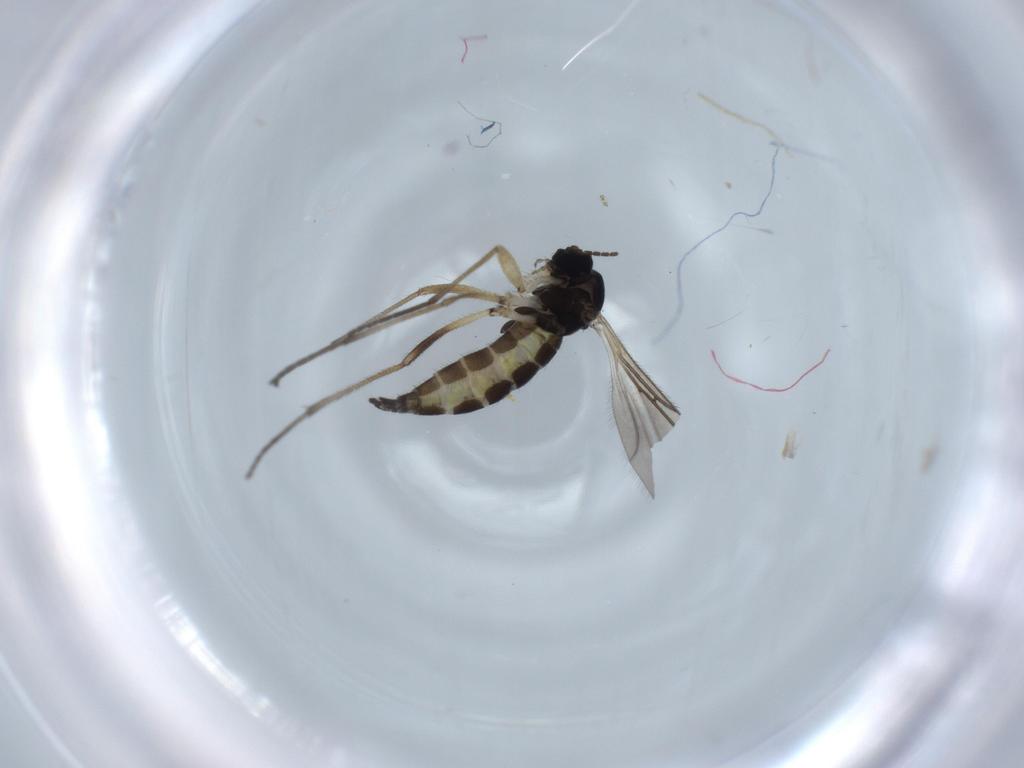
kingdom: Animalia
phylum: Arthropoda
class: Insecta
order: Diptera
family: Sciaridae
